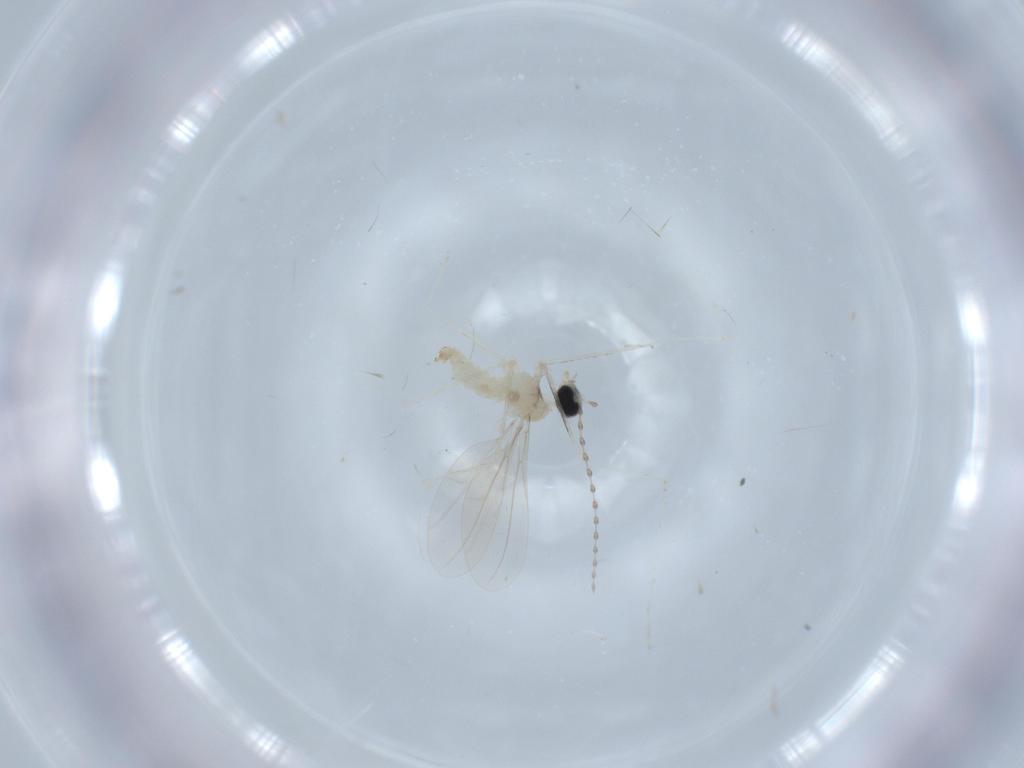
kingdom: Animalia
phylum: Arthropoda
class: Insecta
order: Diptera
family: Cecidomyiidae
